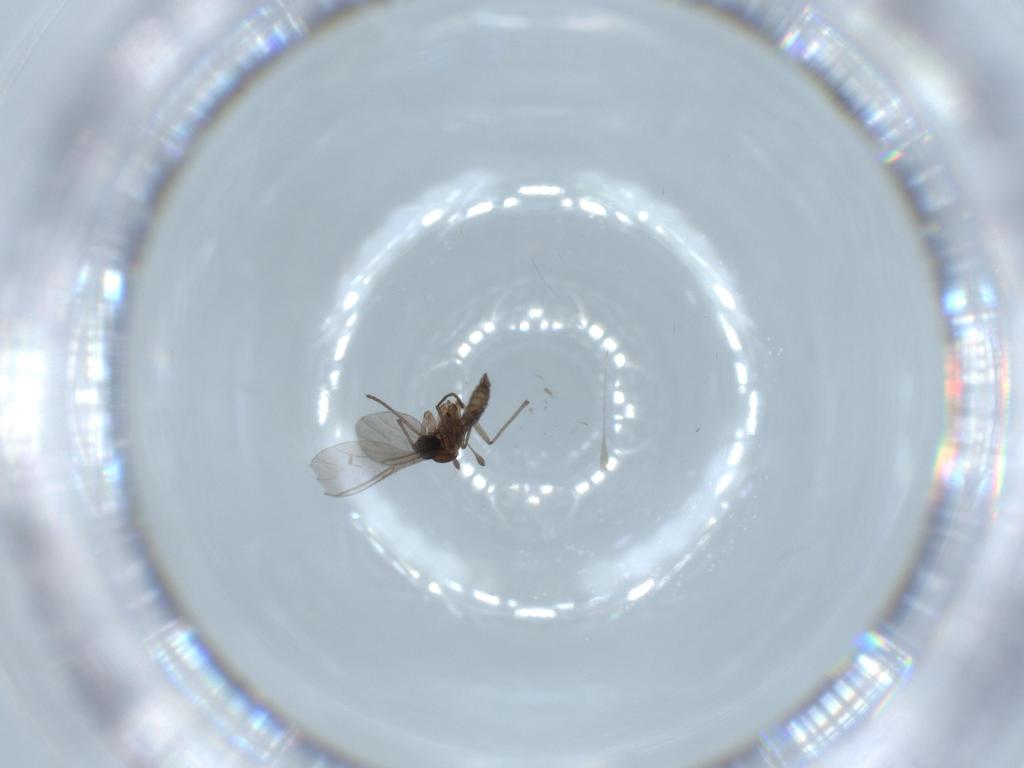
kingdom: Animalia
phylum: Arthropoda
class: Insecta
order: Diptera
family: Sciaridae
